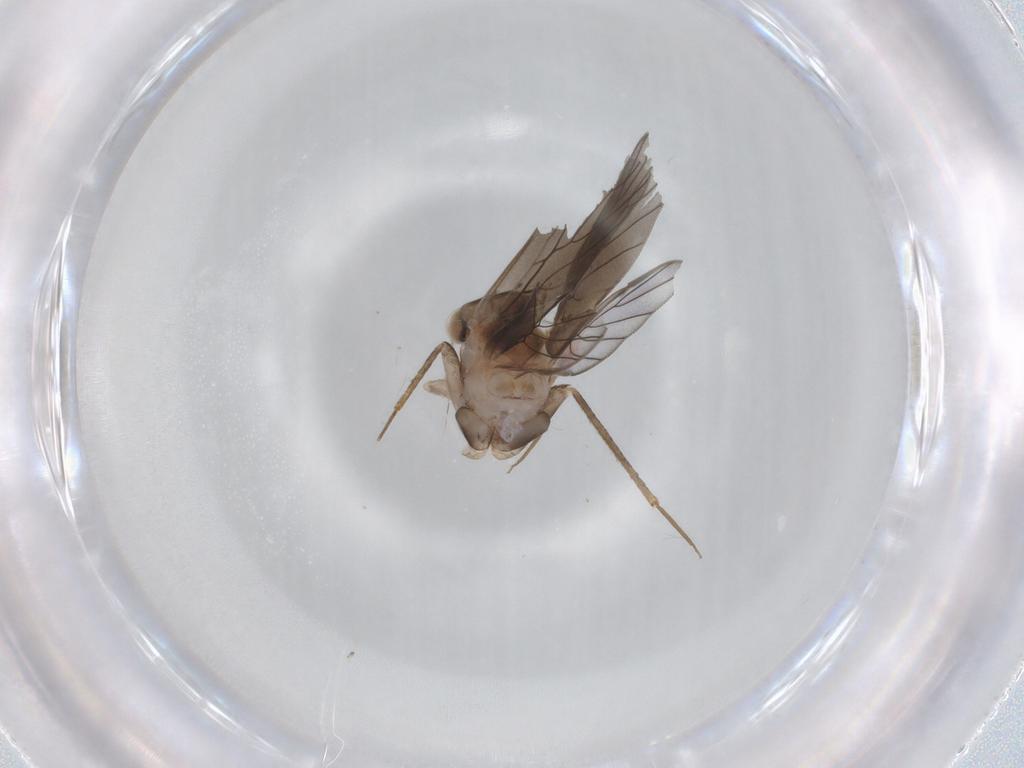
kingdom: Animalia
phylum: Arthropoda
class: Insecta
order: Psocodea
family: Lepidopsocidae
